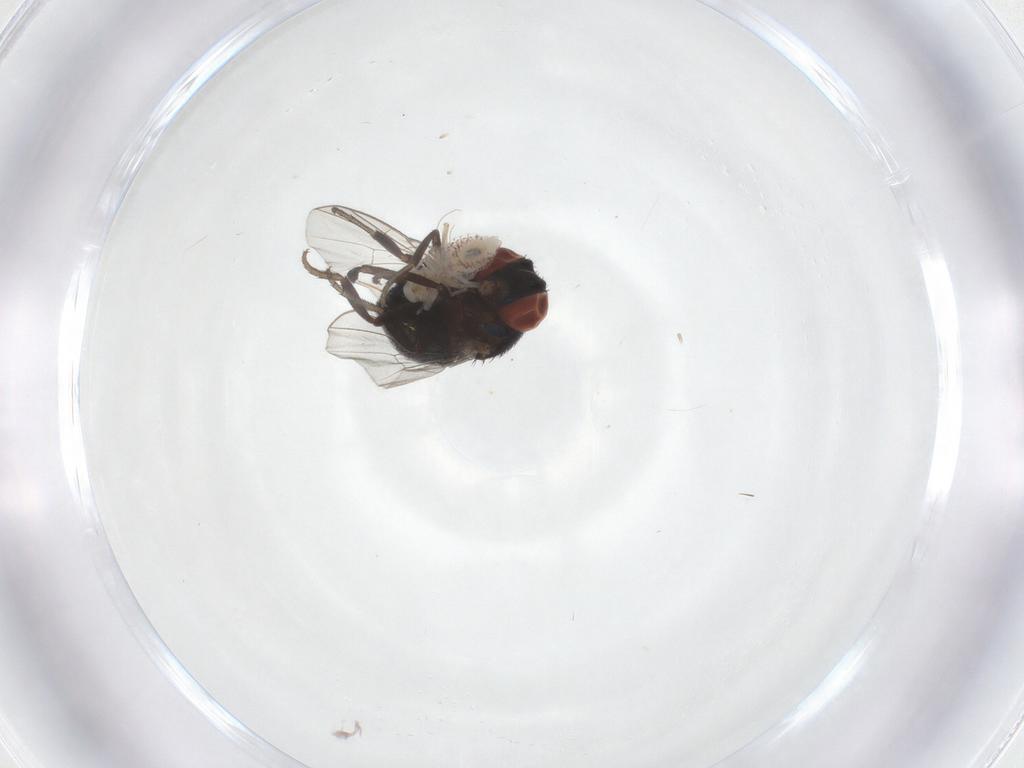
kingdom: Animalia
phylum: Arthropoda
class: Insecta
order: Diptera
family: Cryptochetidae
